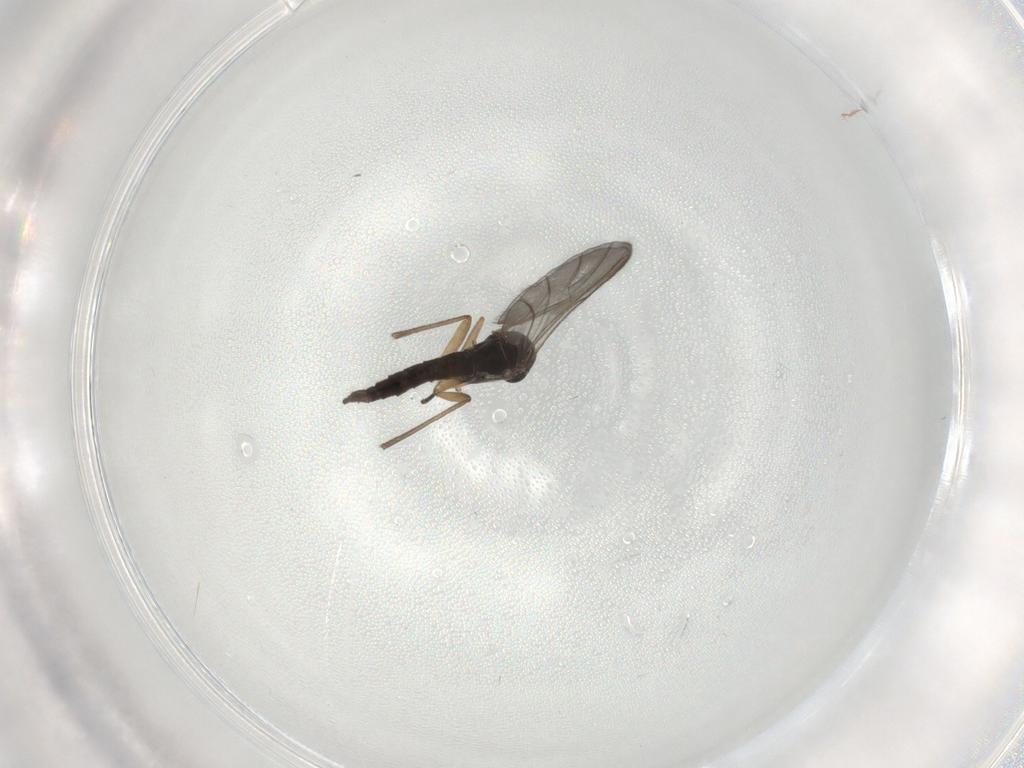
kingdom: Animalia
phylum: Arthropoda
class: Insecta
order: Diptera
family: Sciaridae
